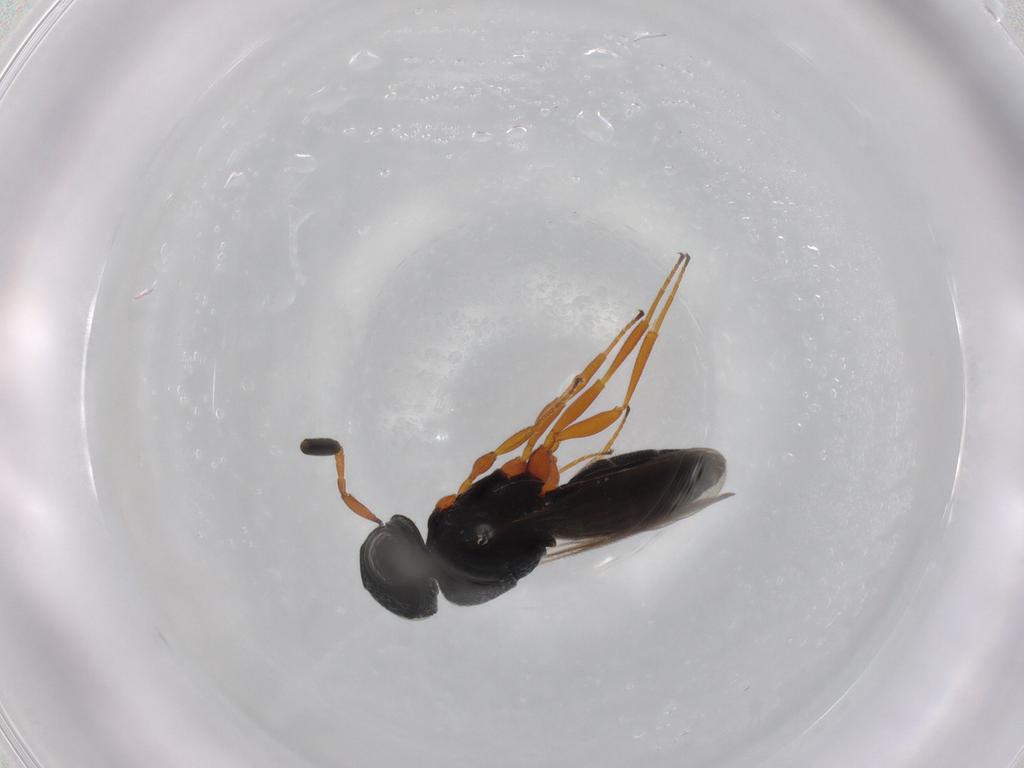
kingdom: Animalia
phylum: Arthropoda
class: Insecta
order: Hymenoptera
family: Scelionidae
